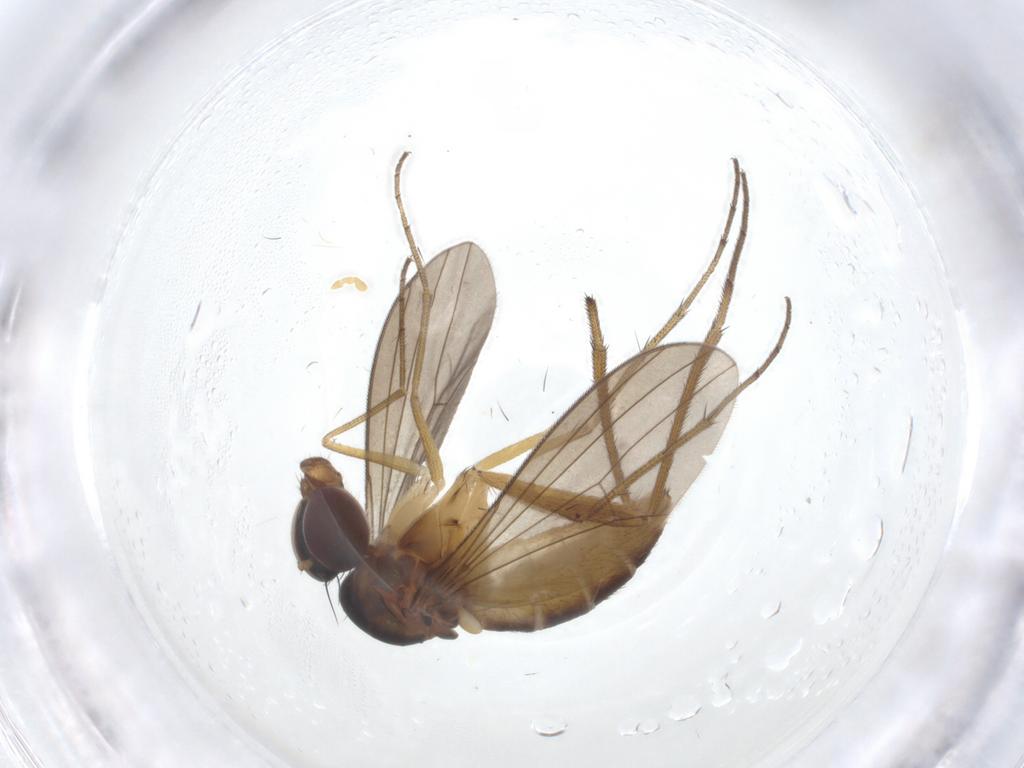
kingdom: Animalia
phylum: Arthropoda
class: Insecta
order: Diptera
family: Dolichopodidae
